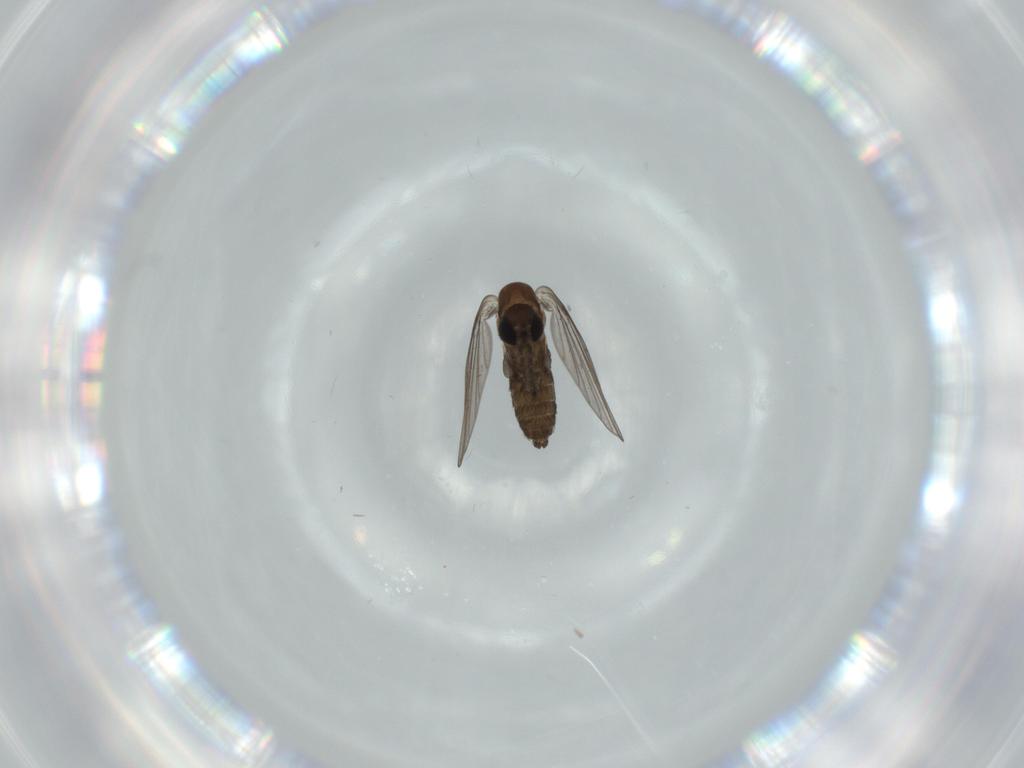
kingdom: Animalia
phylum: Arthropoda
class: Insecta
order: Diptera
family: Psychodidae
